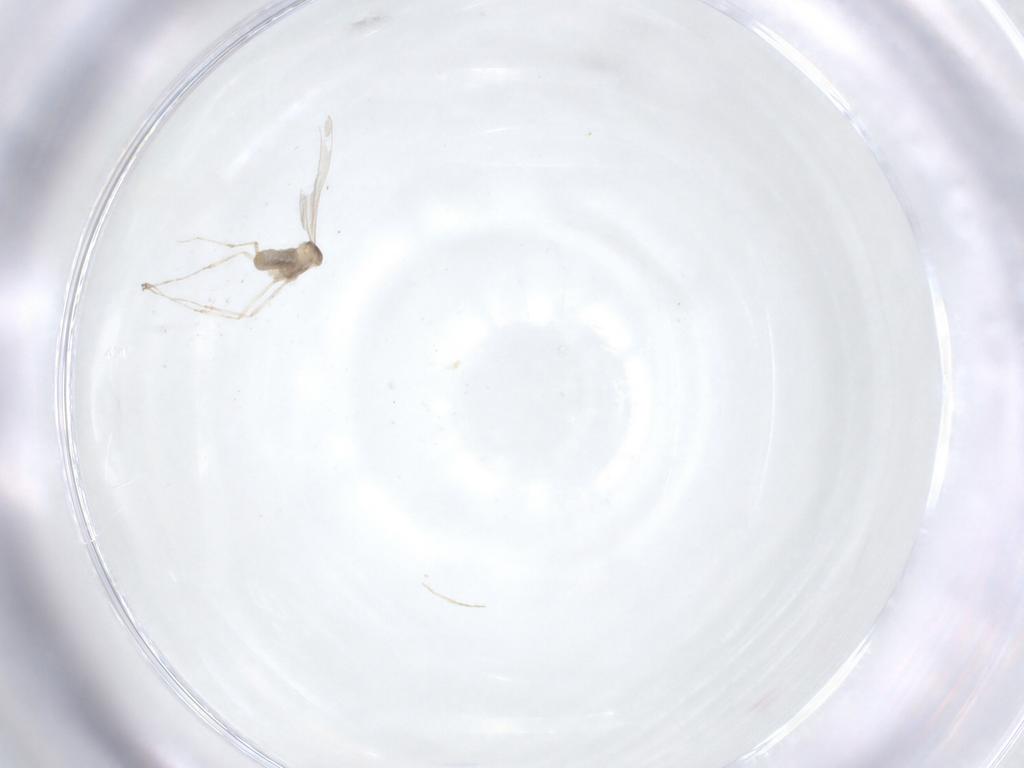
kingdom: Animalia
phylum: Arthropoda
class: Insecta
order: Diptera
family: Cecidomyiidae
